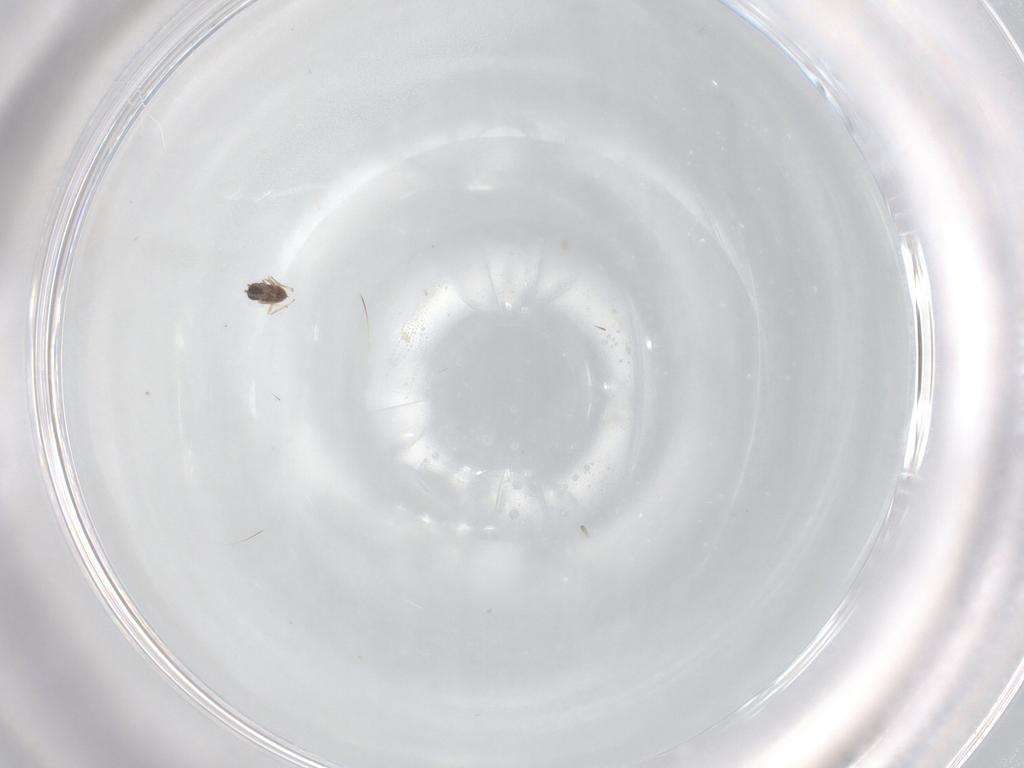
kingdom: Animalia
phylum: Arthropoda
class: Insecta
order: Hymenoptera
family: Mymaridae
